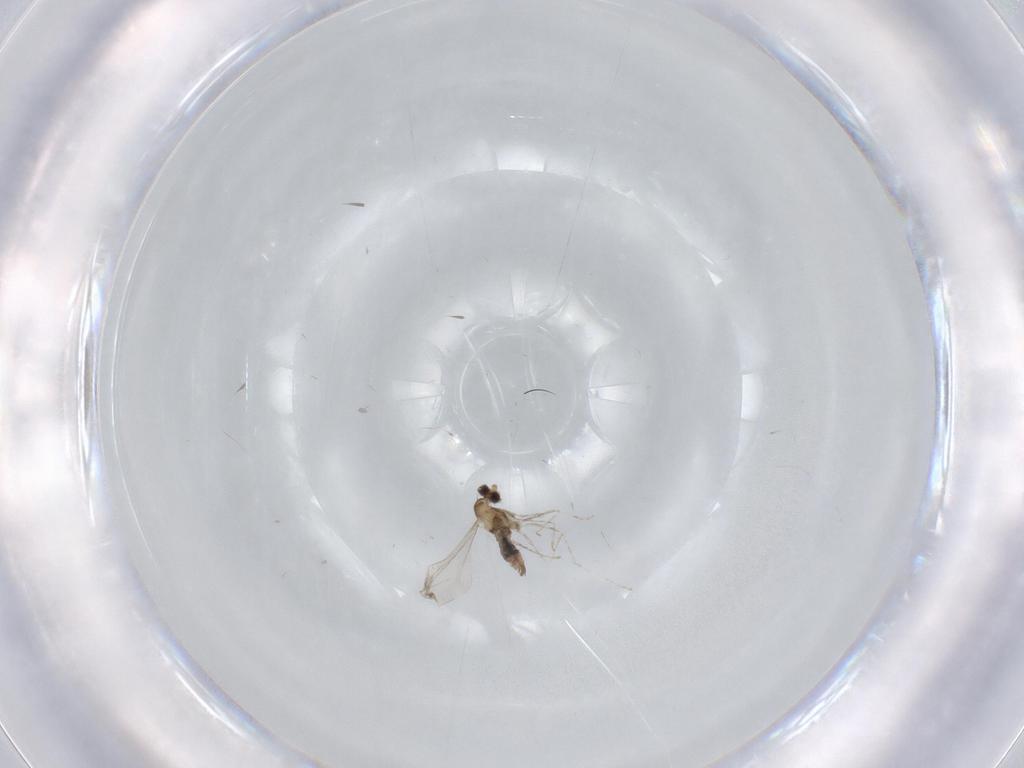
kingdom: Animalia
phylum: Arthropoda
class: Insecta
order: Diptera
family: Cecidomyiidae
